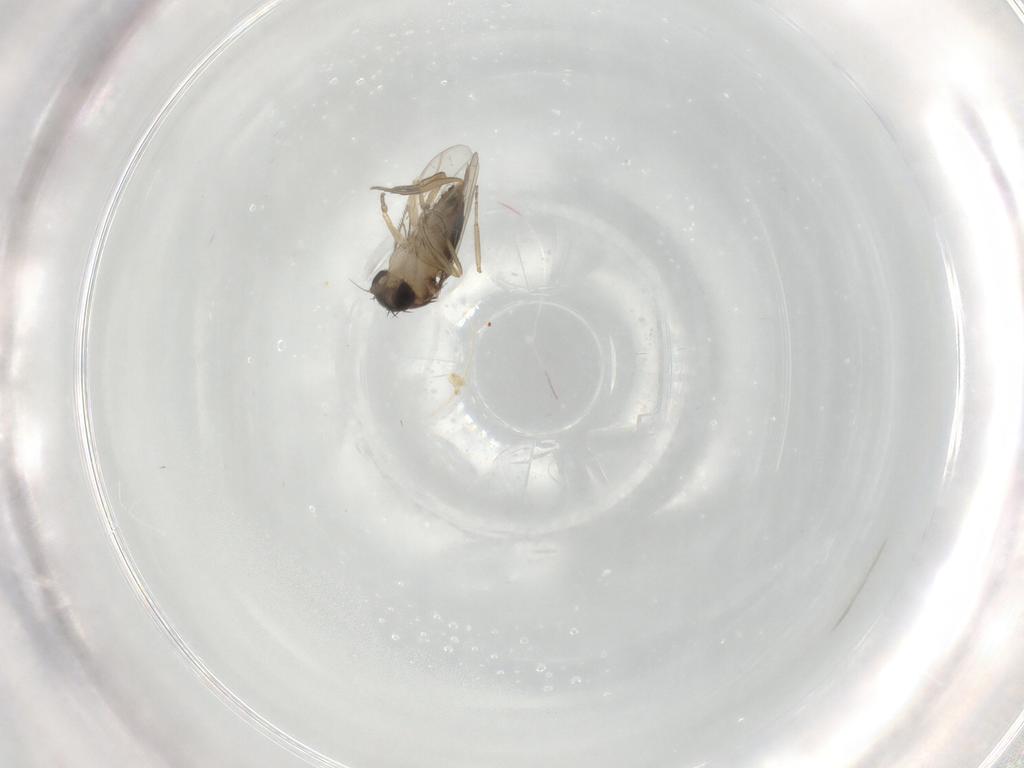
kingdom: Animalia
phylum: Arthropoda
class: Insecta
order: Diptera
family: Ceratopogonidae
